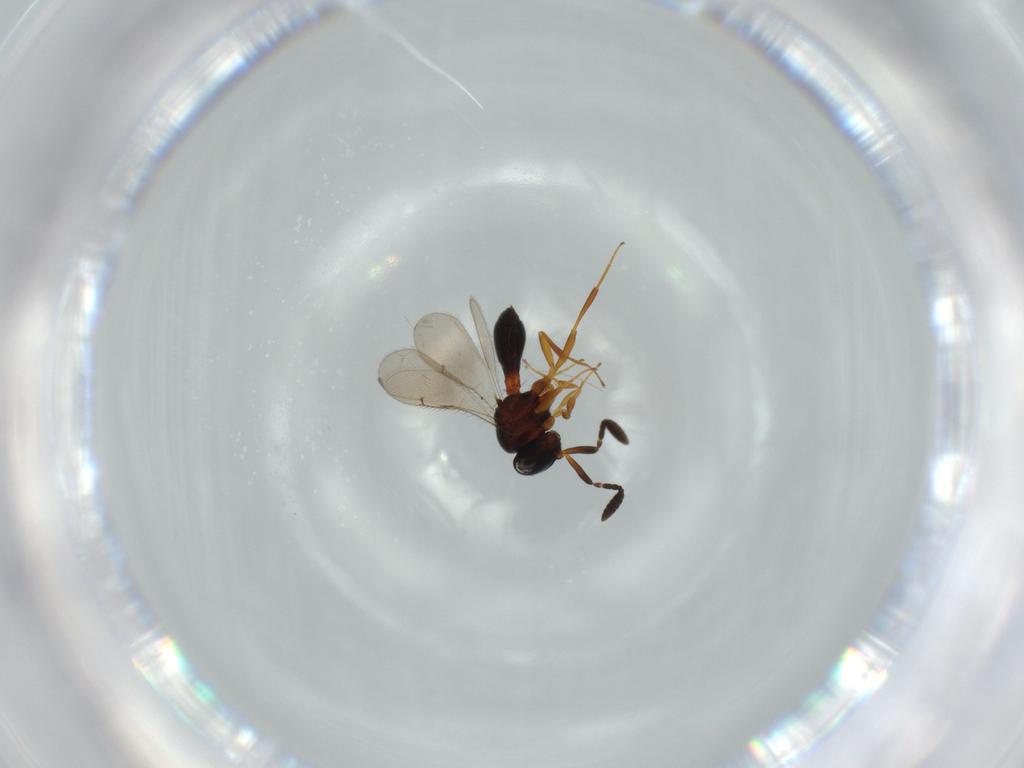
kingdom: Animalia
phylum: Arthropoda
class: Insecta
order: Hymenoptera
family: Scelionidae
